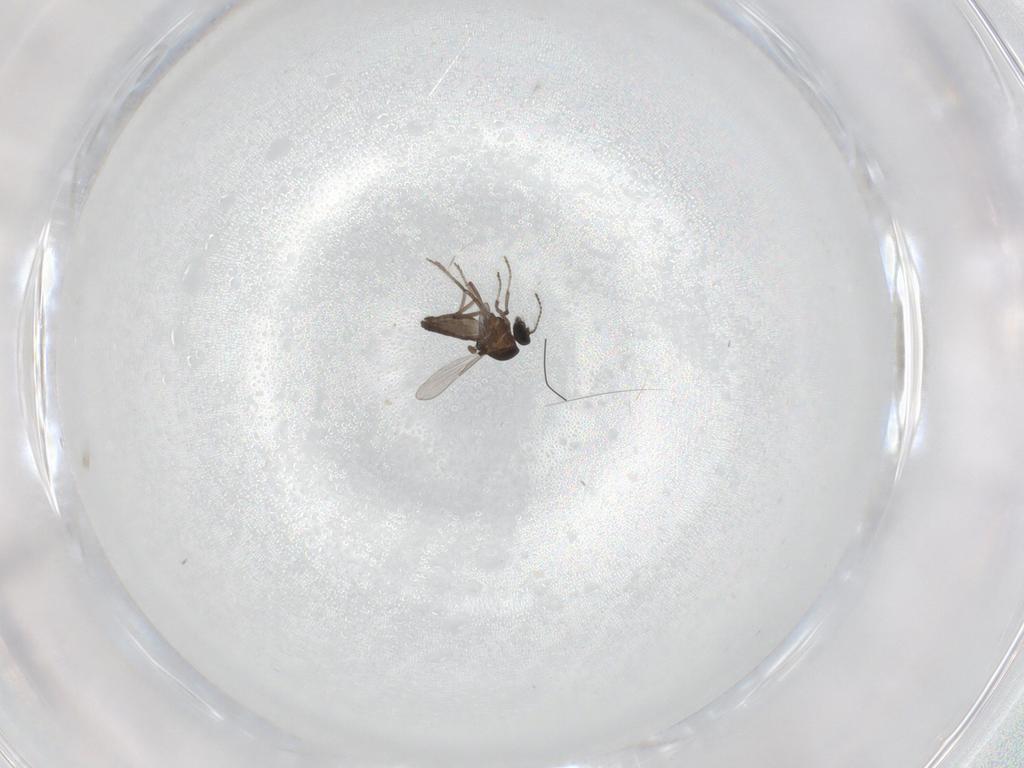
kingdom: Animalia
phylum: Arthropoda
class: Insecta
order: Diptera
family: Ceratopogonidae
